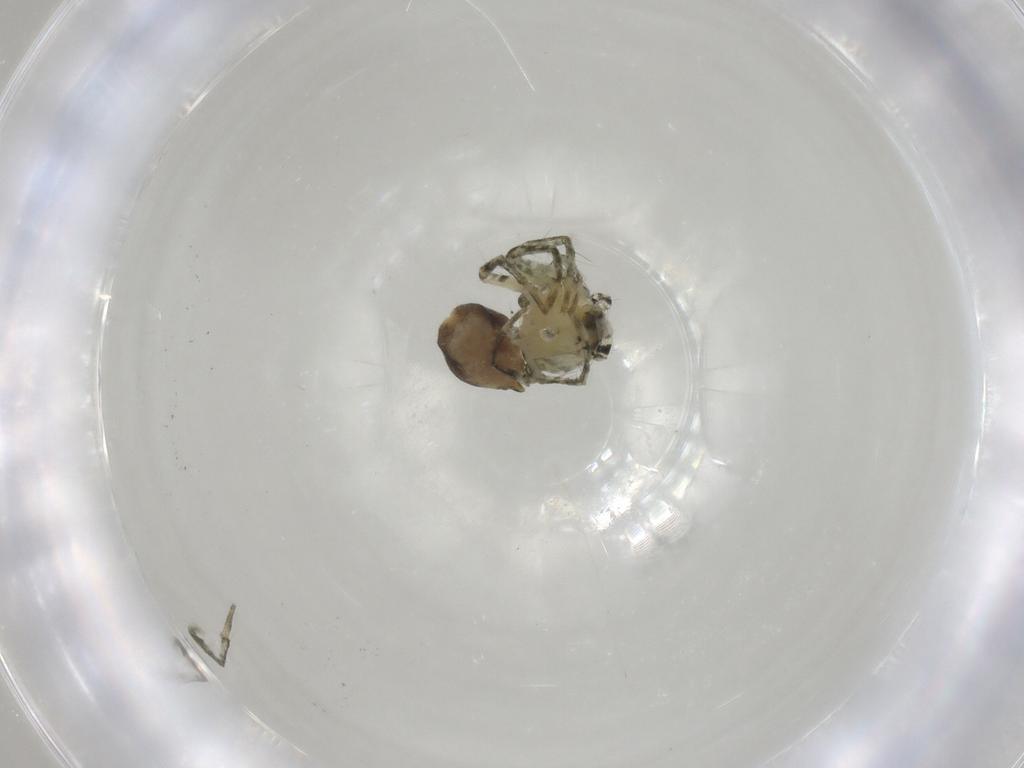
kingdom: Animalia
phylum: Arthropoda
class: Arachnida
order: Araneae
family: Oxyopidae
